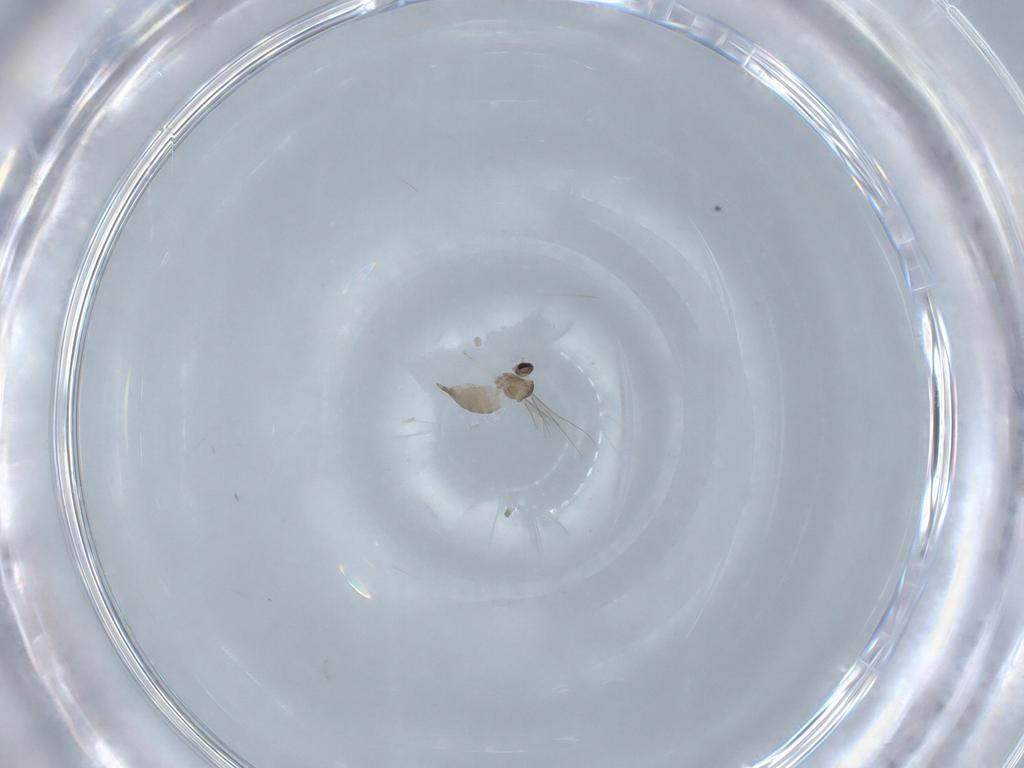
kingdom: Animalia
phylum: Arthropoda
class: Insecta
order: Diptera
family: Cecidomyiidae
